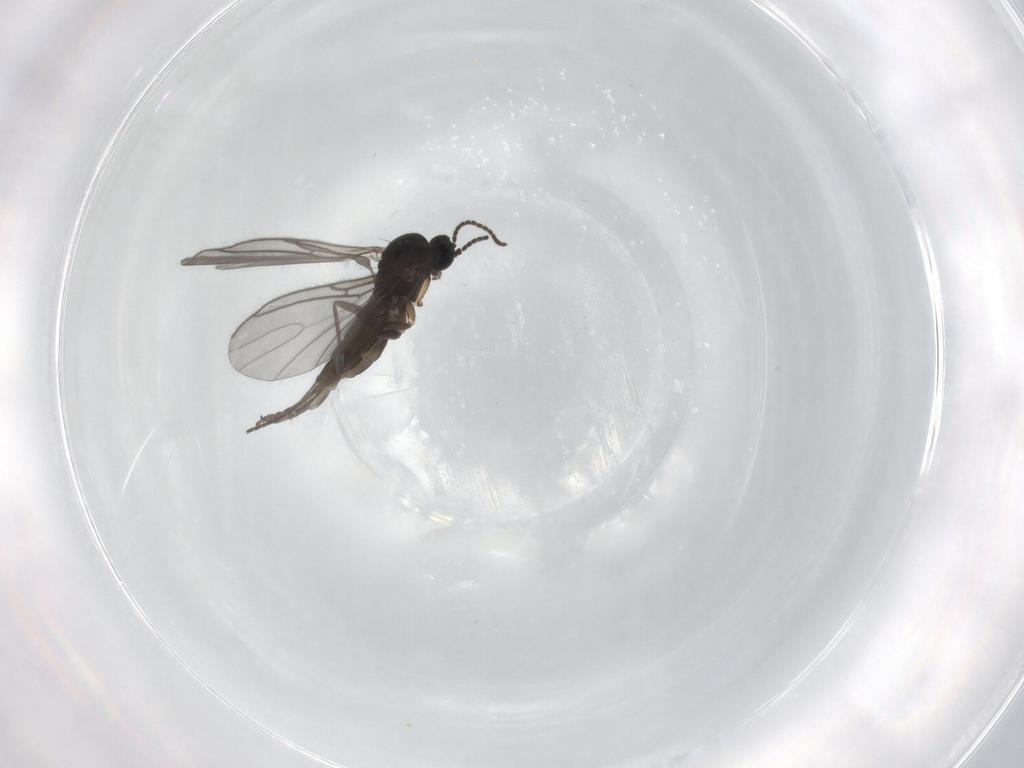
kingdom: Animalia
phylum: Arthropoda
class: Insecta
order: Diptera
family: Sciaridae
